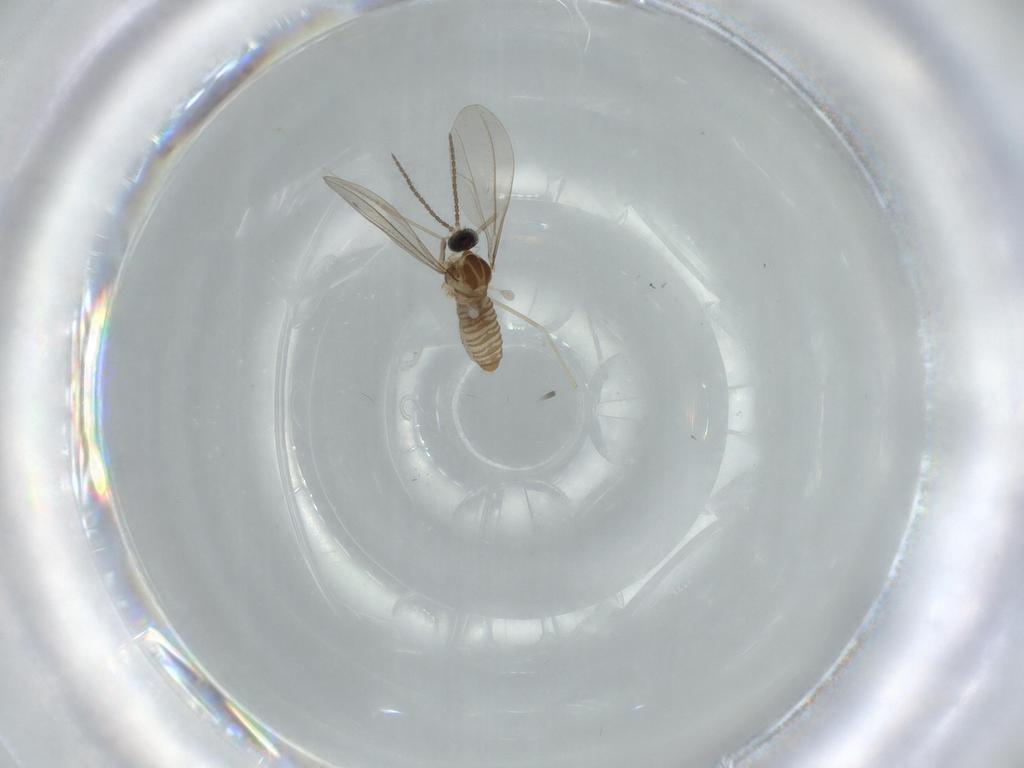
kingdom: Animalia
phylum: Arthropoda
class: Insecta
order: Diptera
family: Cecidomyiidae
